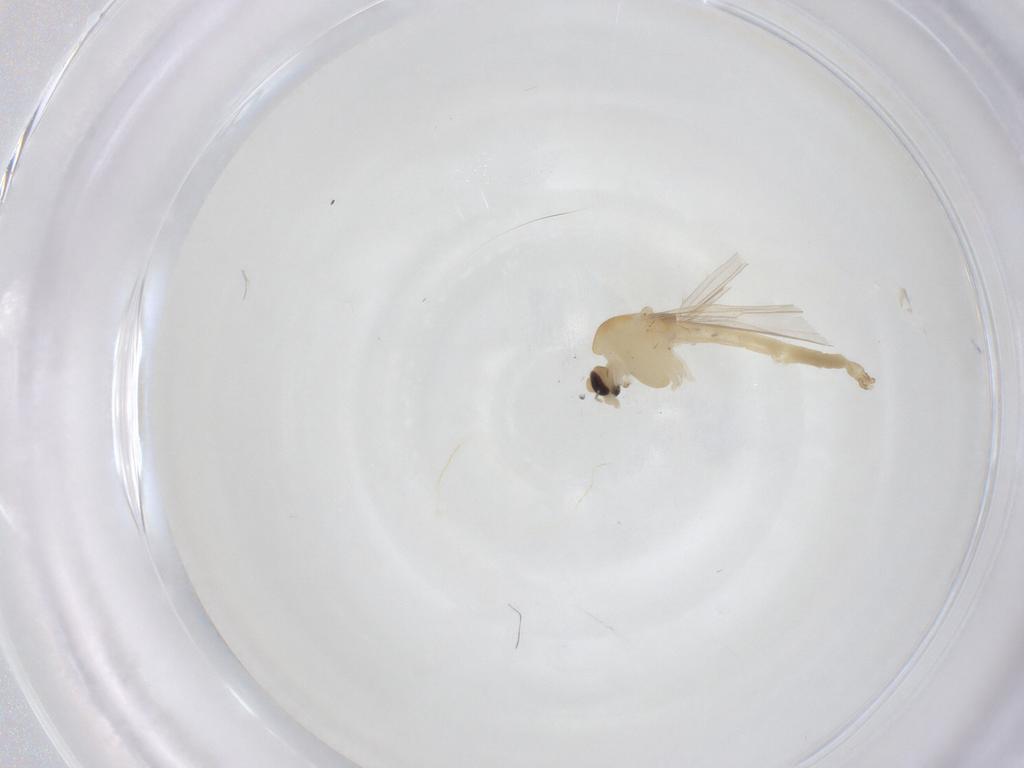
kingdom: Animalia
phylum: Arthropoda
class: Insecta
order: Diptera
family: Chironomidae
